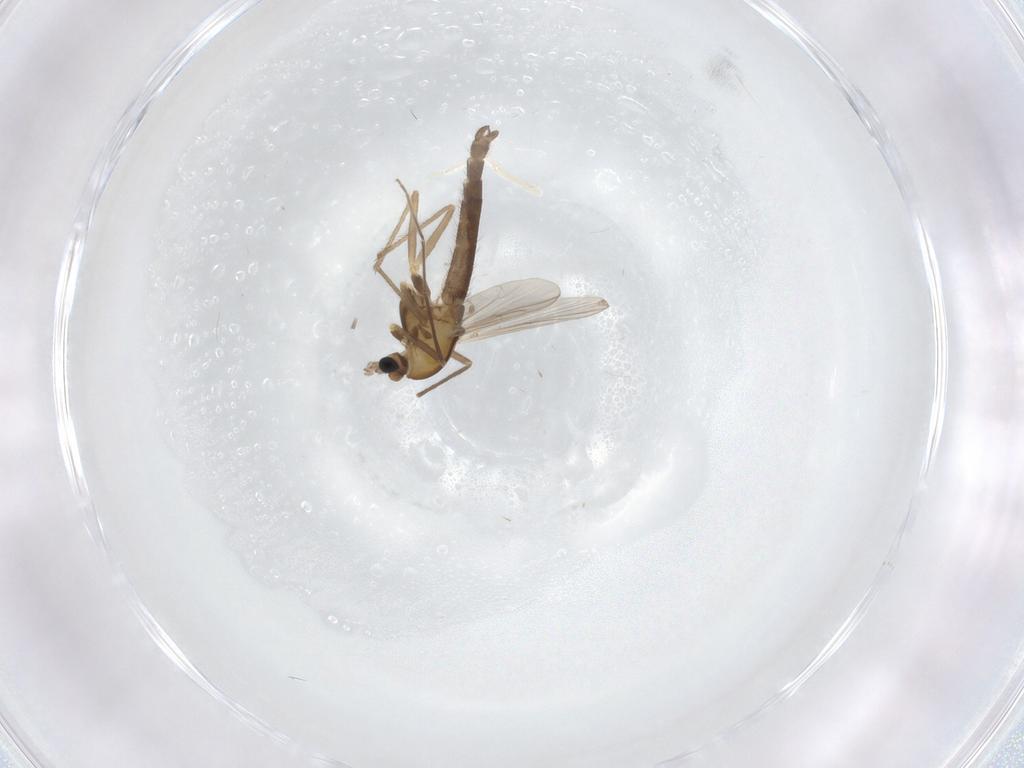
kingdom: Animalia
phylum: Arthropoda
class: Insecta
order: Diptera
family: Chironomidae
